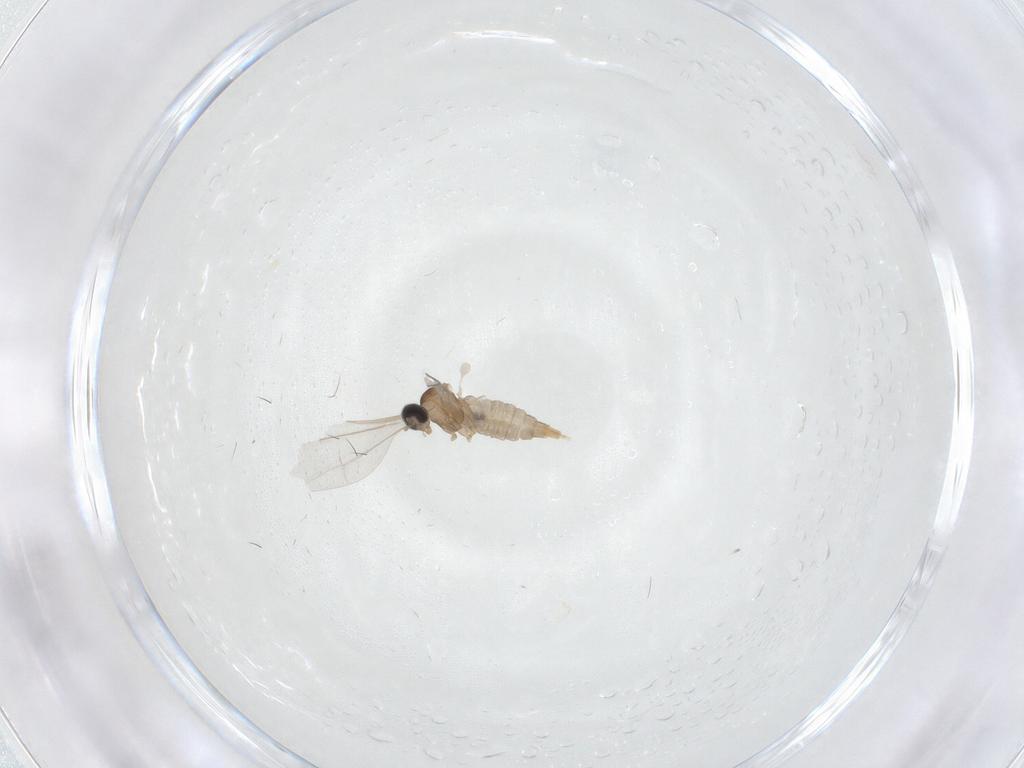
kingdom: Animalia
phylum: Arthropoda
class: Insecta
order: Diptera
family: Cecidomyiidae
